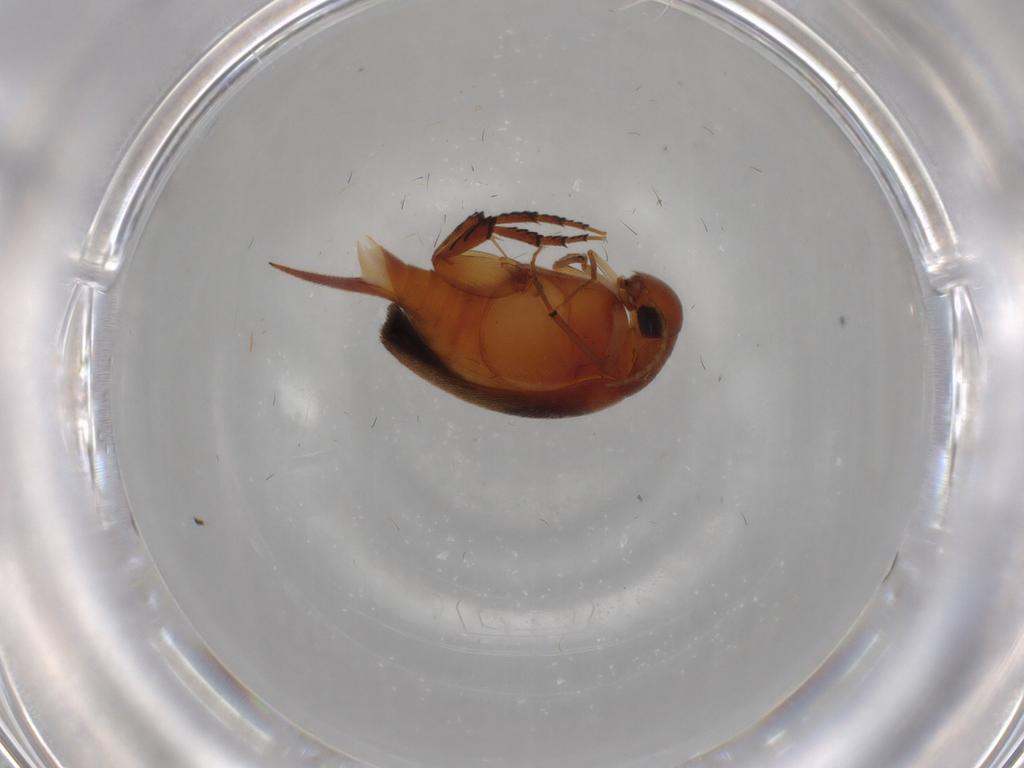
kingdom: Animalia
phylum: Arthropoda
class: Insecta
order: Coleoptera
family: Mordellidae
